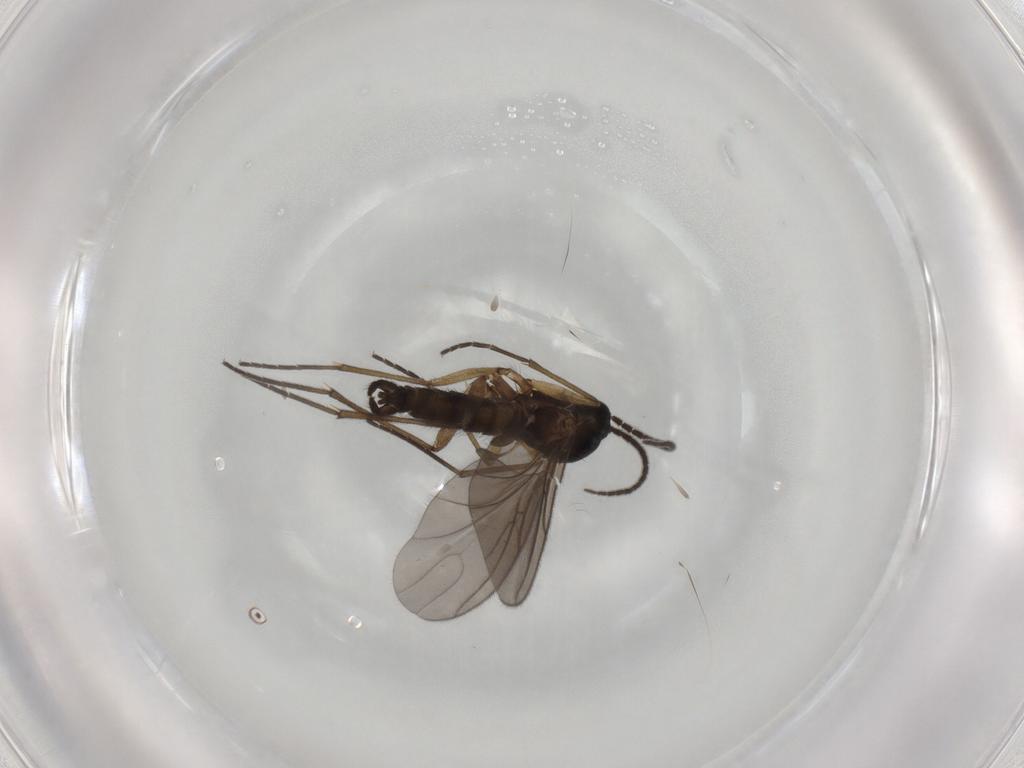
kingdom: Animalia
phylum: Arthropoda
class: Insecta
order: Diptera
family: Sciaridae
